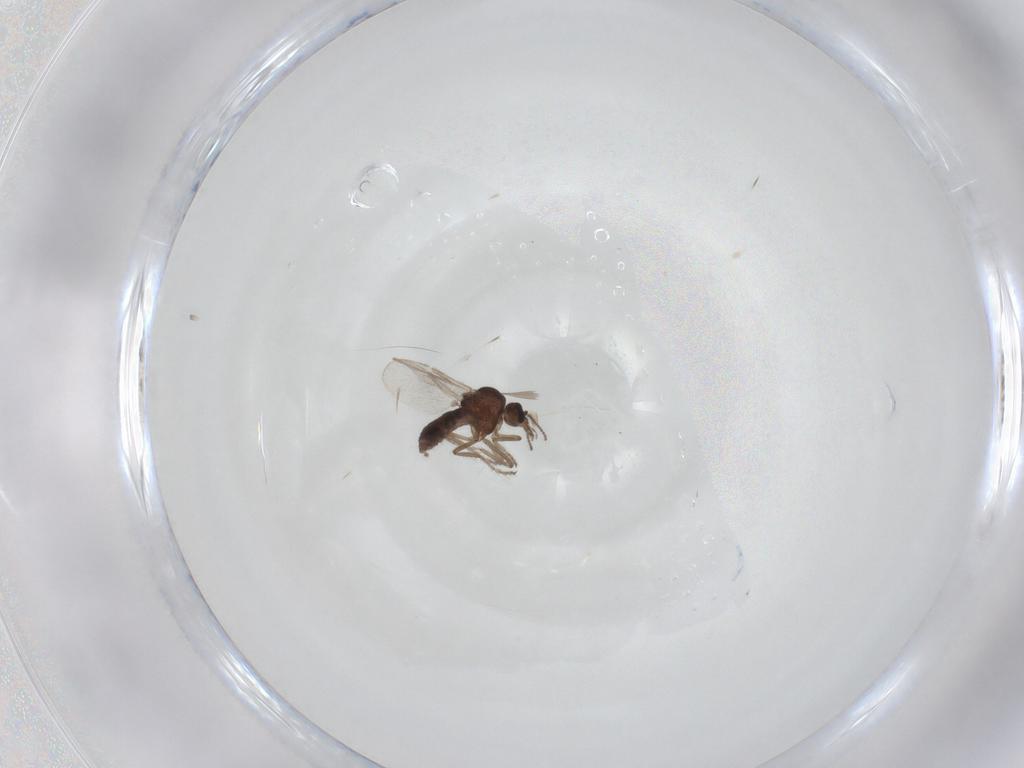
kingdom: Animalia
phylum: Arthropoda
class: Insecta
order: Diptera
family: Ceratopogonidae
